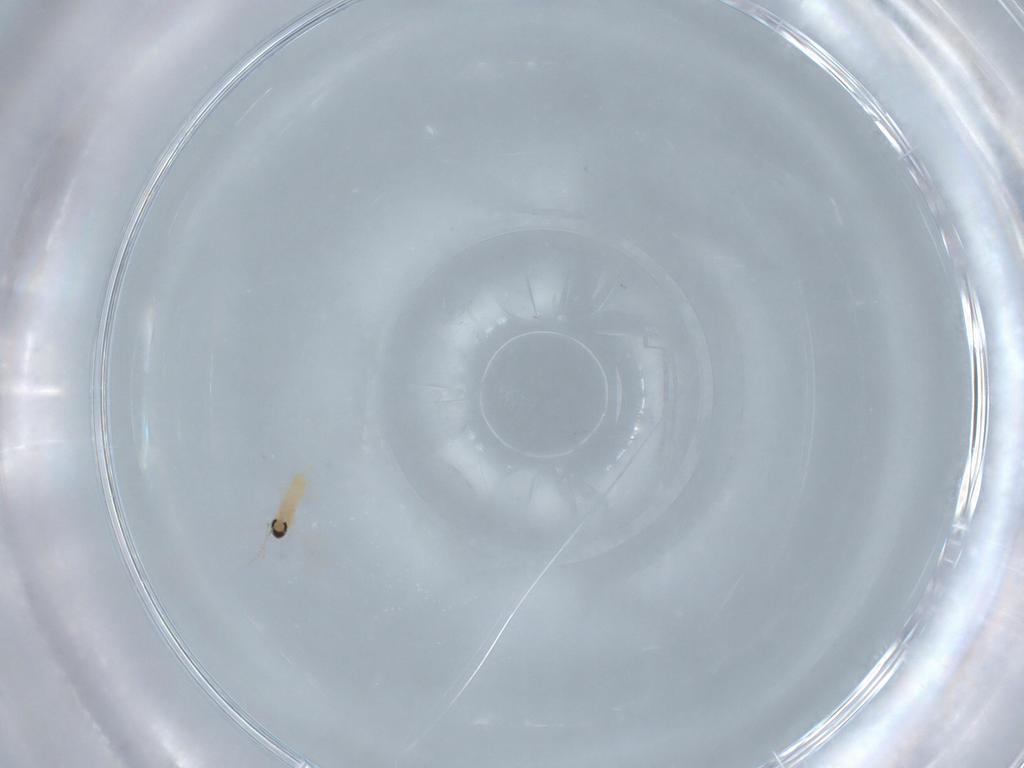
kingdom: Animalia
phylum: Arthropoda
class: Insecta
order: Diptera
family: Cecidomyiidae
